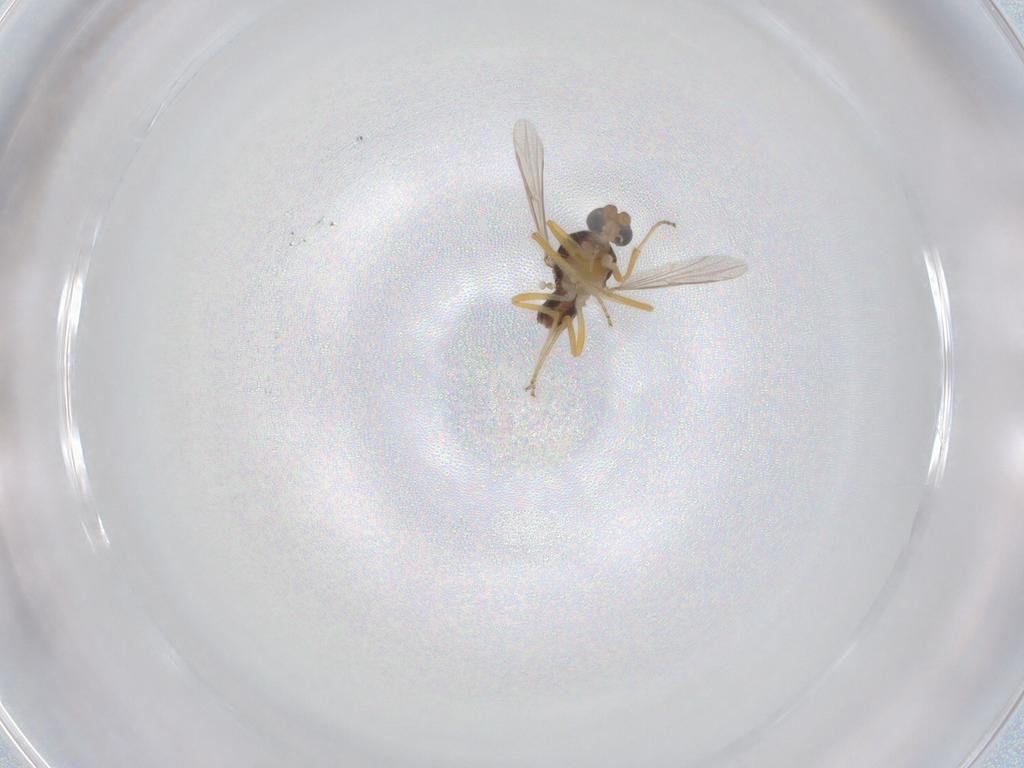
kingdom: Animalia
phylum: Arthropoda
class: Insecta
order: Diptera
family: Ceratopogonidae
